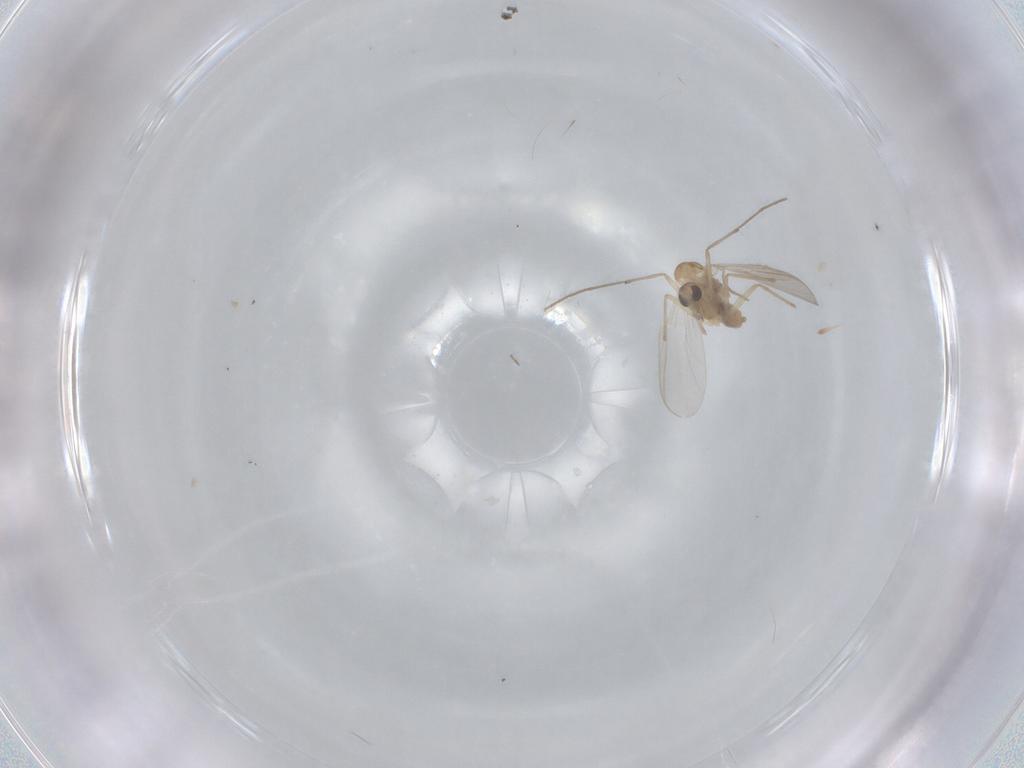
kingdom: Animalia
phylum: Arthropoda
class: Insecta
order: Diptera
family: Chironomidae
